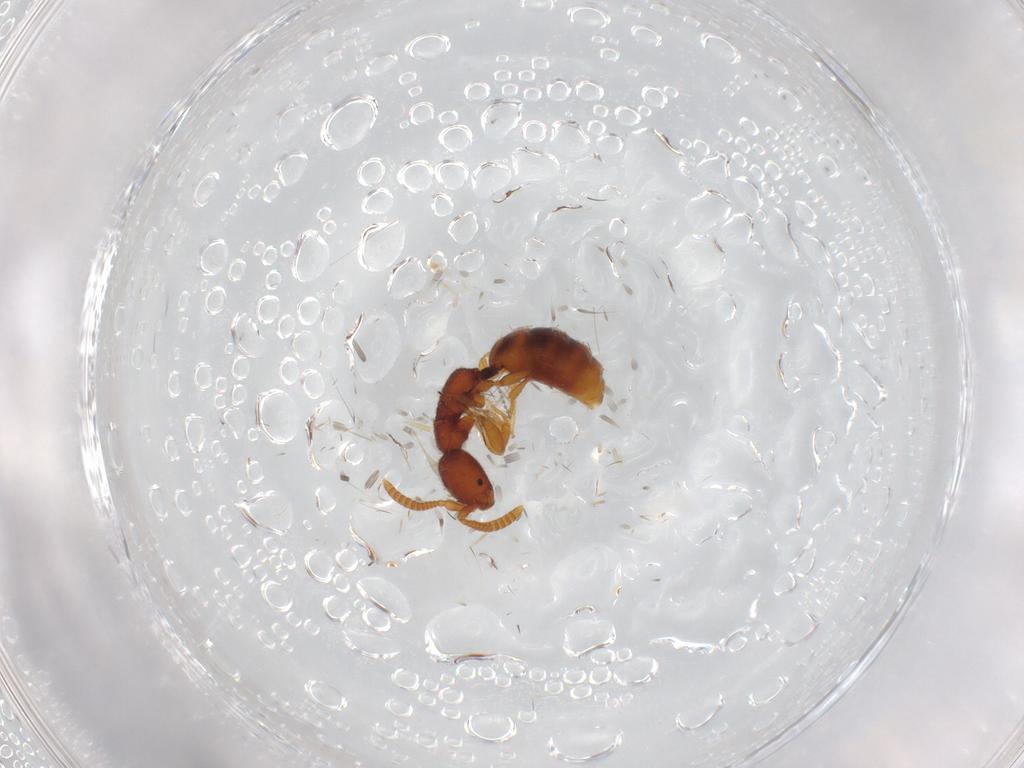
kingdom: Animalia
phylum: Arthropoda
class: Insecta
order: Hymenoptera
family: Bethylidae
